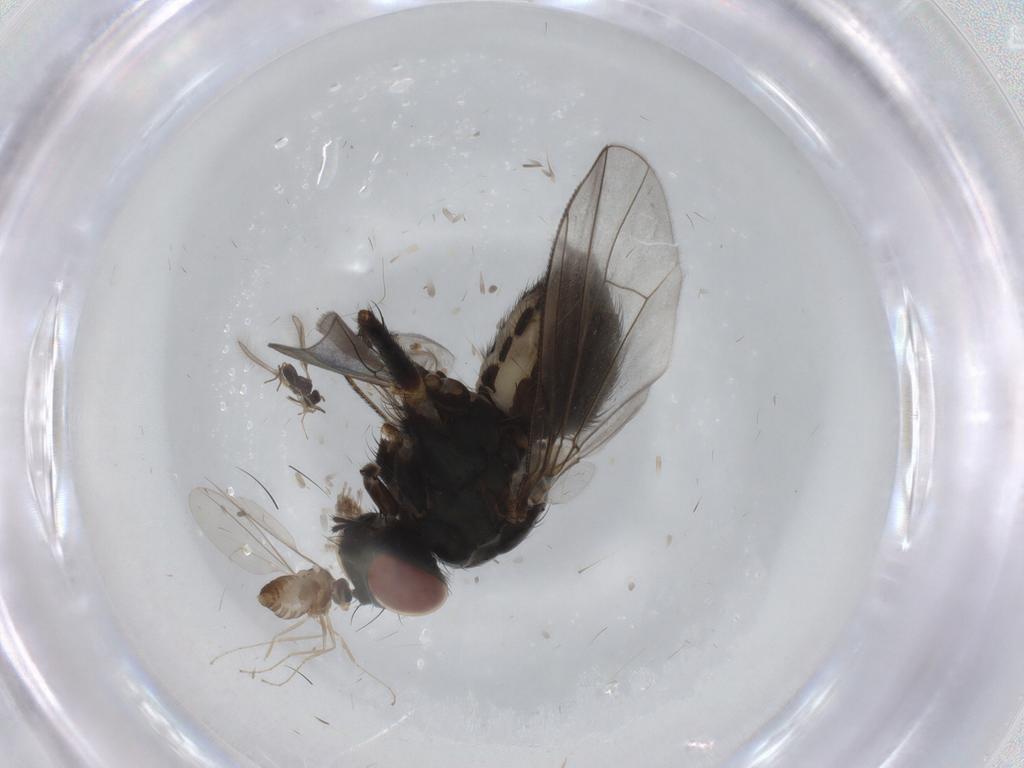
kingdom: Animalia
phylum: Arthropoda
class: Insecta
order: Diptera
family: Cecidomyiidae
